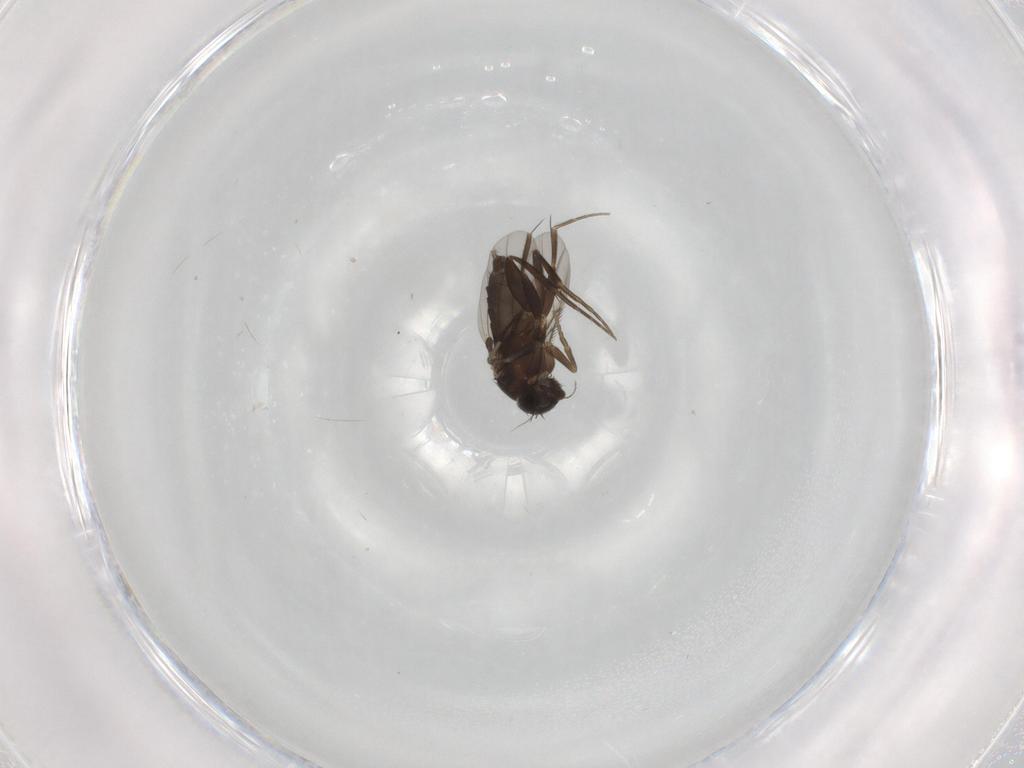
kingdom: Animalia
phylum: Arthropoda
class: Insecta
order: Diptera
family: Phoridae
